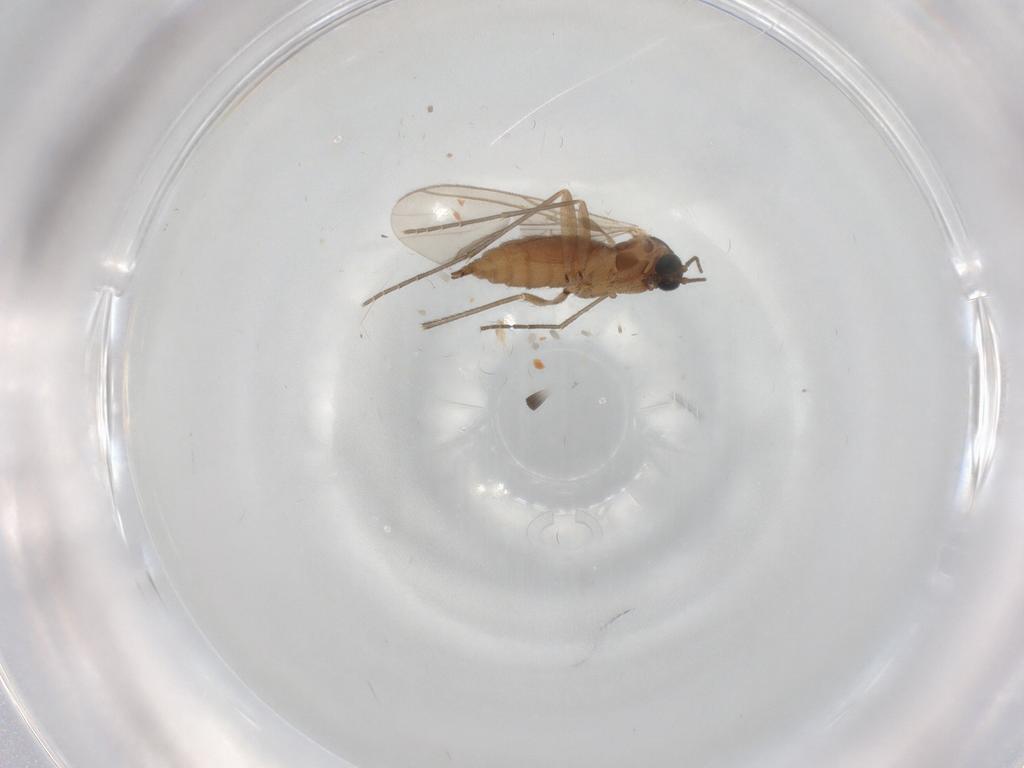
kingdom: Animalia
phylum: Arthropoda
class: Insecta
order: Diptera
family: Sciaridae
